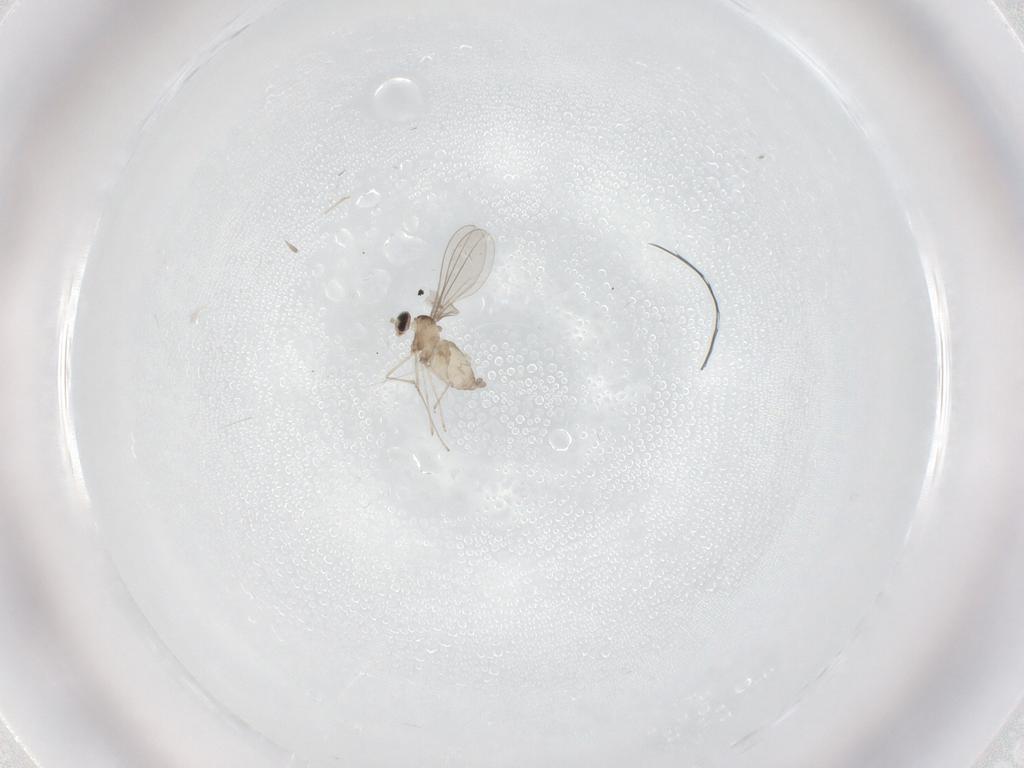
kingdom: Animalia
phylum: Arthropoda
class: Insecta
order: Diptera
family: Cecidomyiidae
